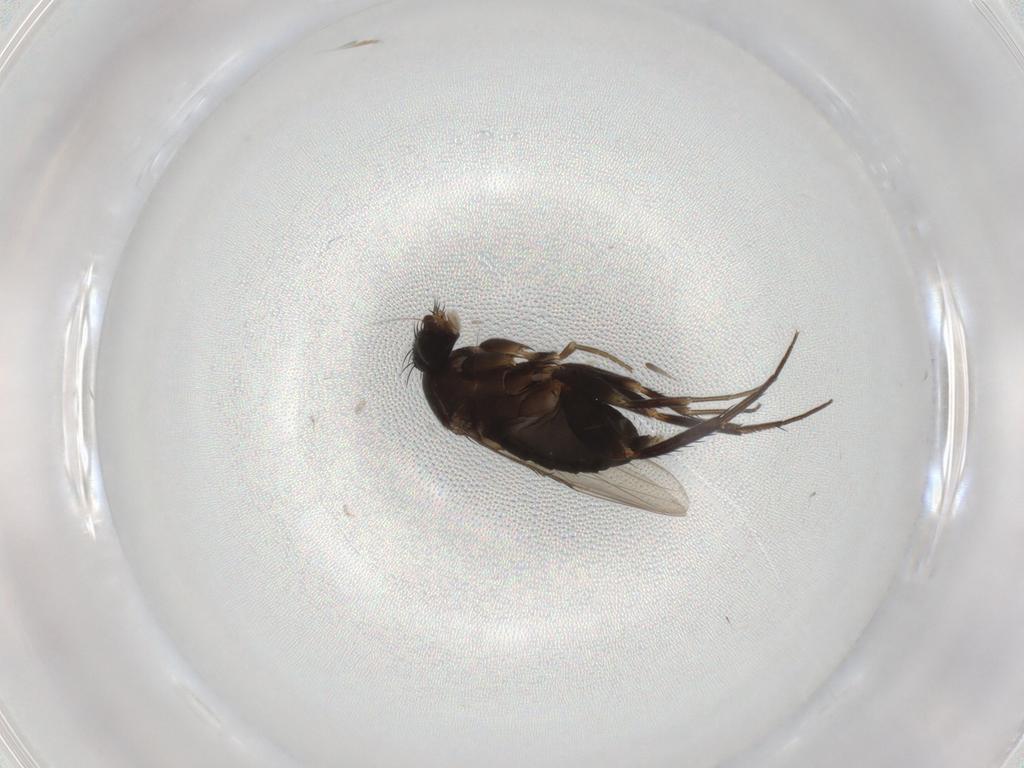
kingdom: Animalia
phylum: Arthropoda
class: Insecta
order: Diptera
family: Phoridae
